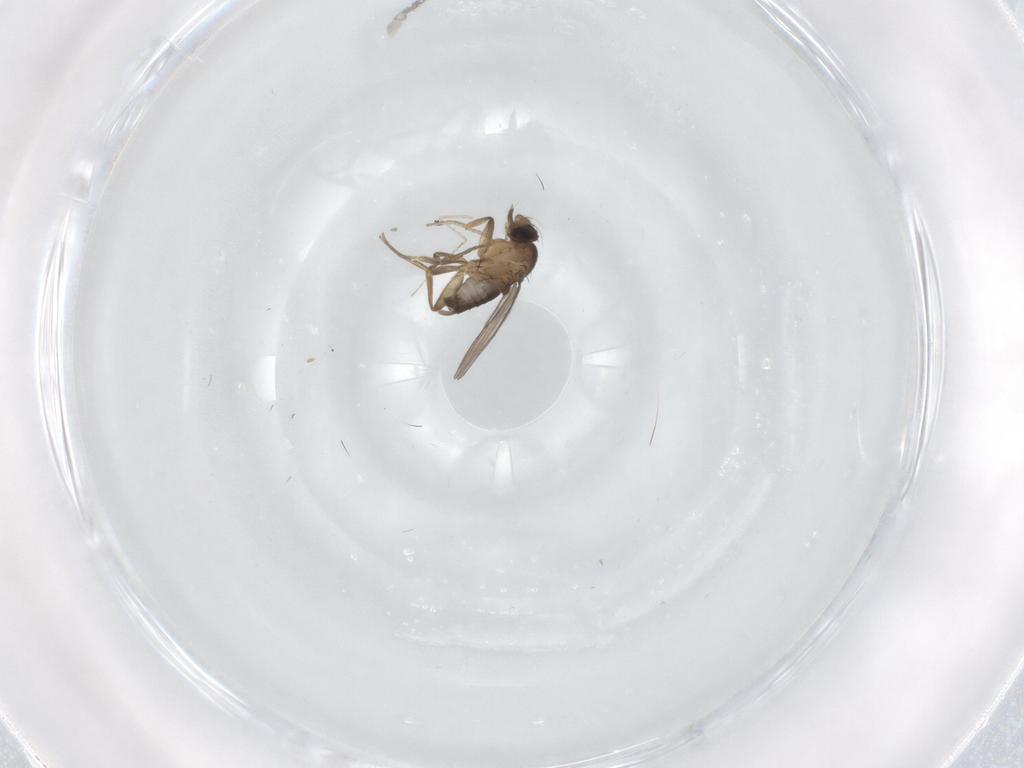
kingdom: Animalia
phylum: Arthropoda
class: Insecta
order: Diptera
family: Phoridae
